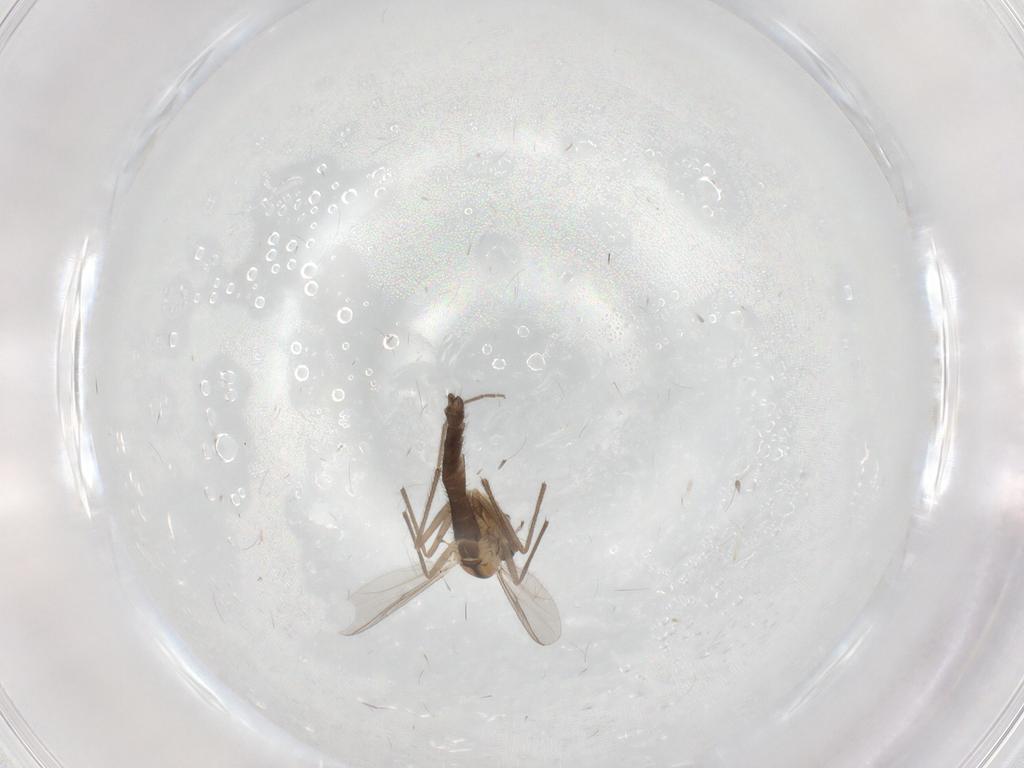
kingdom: Animalia
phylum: Arthropoda
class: Insecta
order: Diptera
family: Chironomidae
